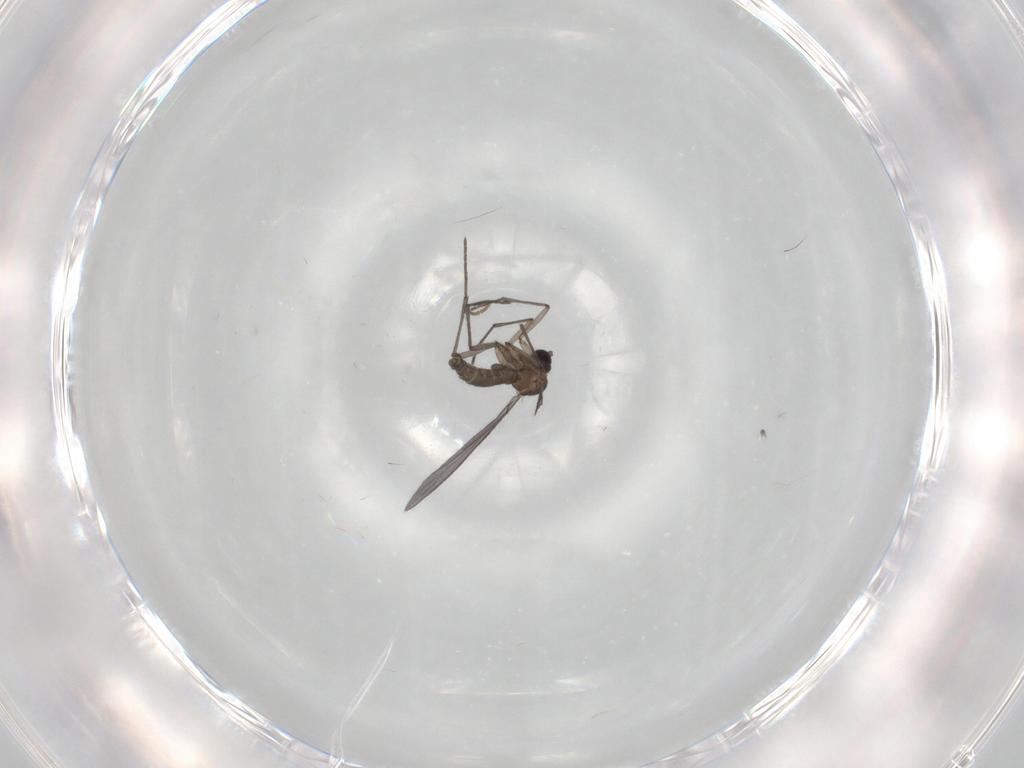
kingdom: Animalia
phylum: Arthropoda
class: Insecta
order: Diptera
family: Sciaridae
